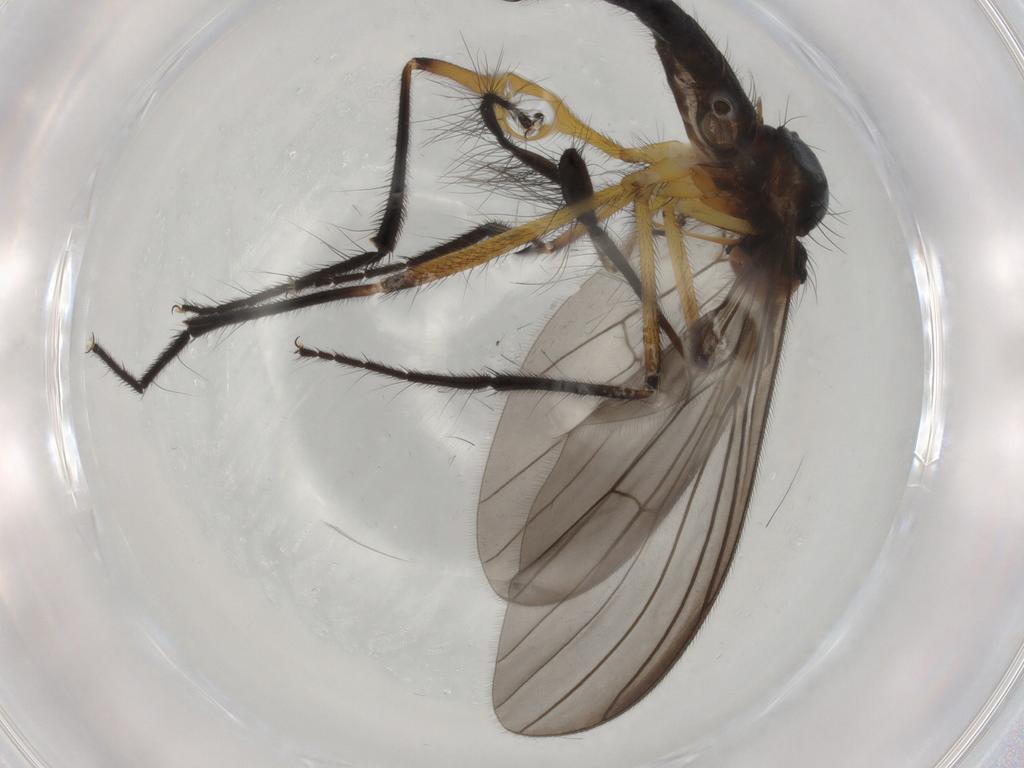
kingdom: Animalia
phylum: Arthropoda
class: Insecta
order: Diptera
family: Empididae
